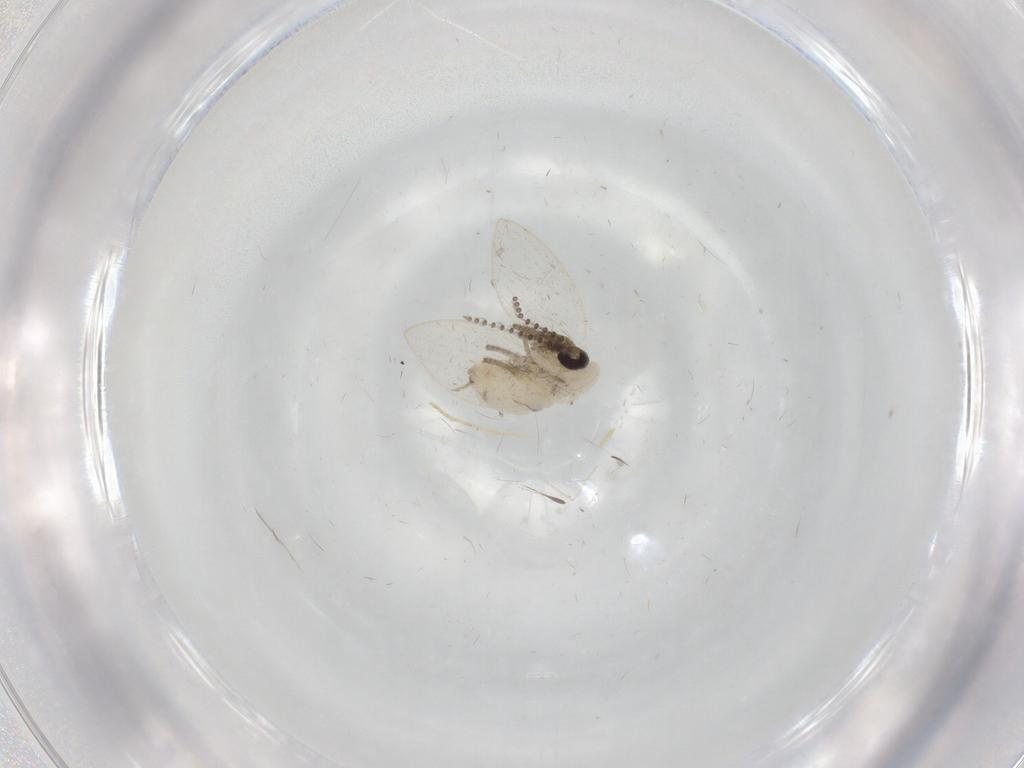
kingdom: Animalia
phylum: Arthropoda
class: Insecta
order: Diptera
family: Psychodidae
